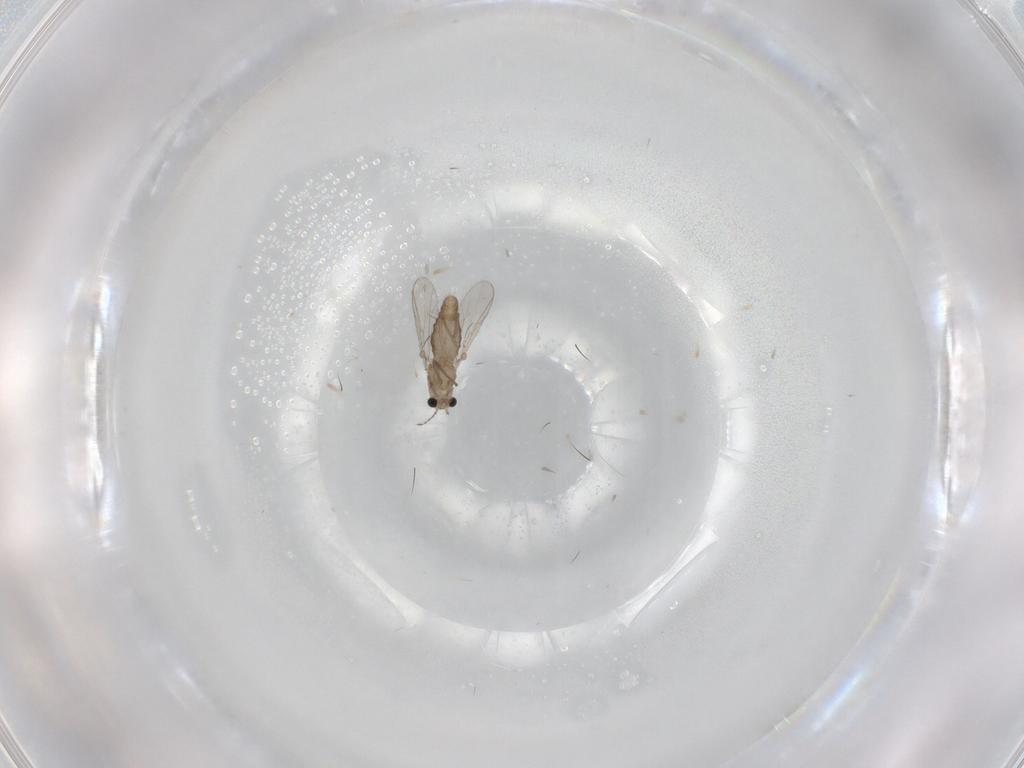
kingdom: Animalia
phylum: Arthropoda
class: Insecta
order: Diptera
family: Chironomidae
